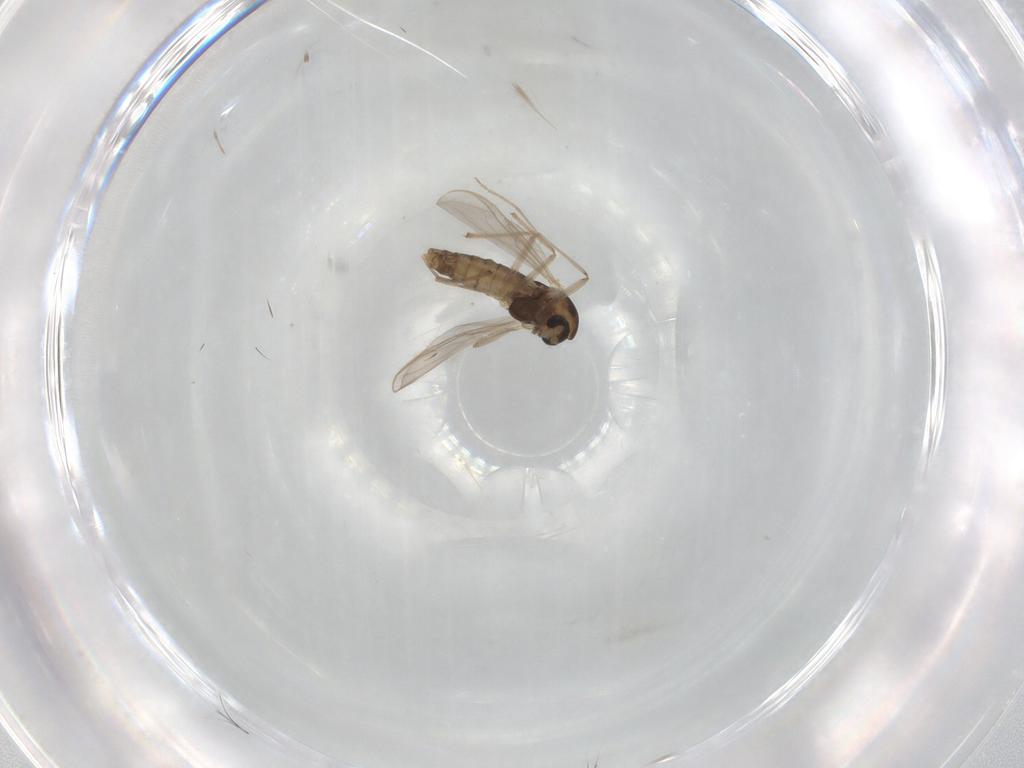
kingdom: Animalia
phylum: Arthropoda
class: Insecta
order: Diptera
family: Chironomidae
